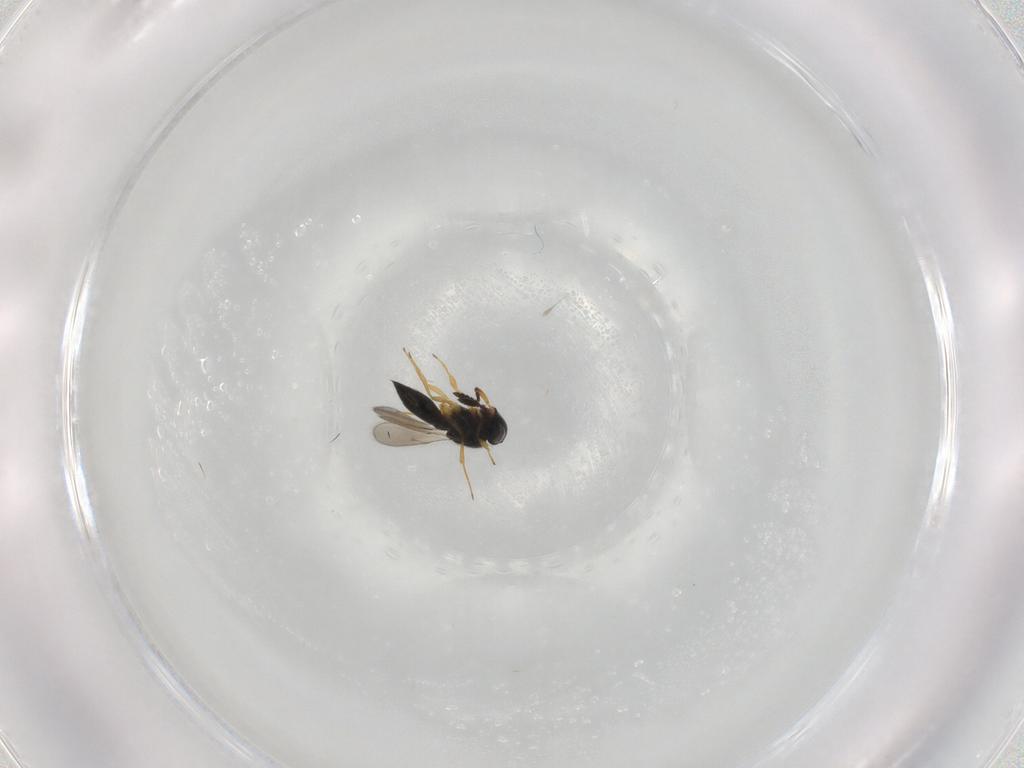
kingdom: Animalia
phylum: Arthropoda
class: Insecta
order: Hymenoptera
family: Scelionidae
